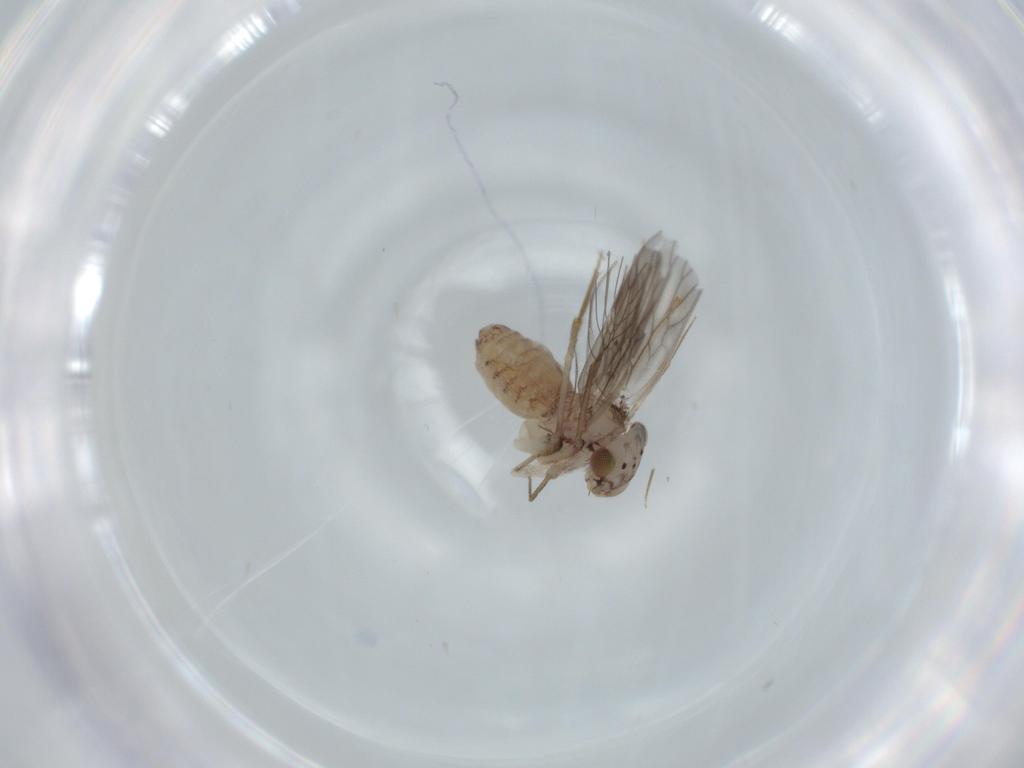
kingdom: Animalia
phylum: Arthropoda
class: Insecta
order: Psocodea
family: Lepidopsocidae
